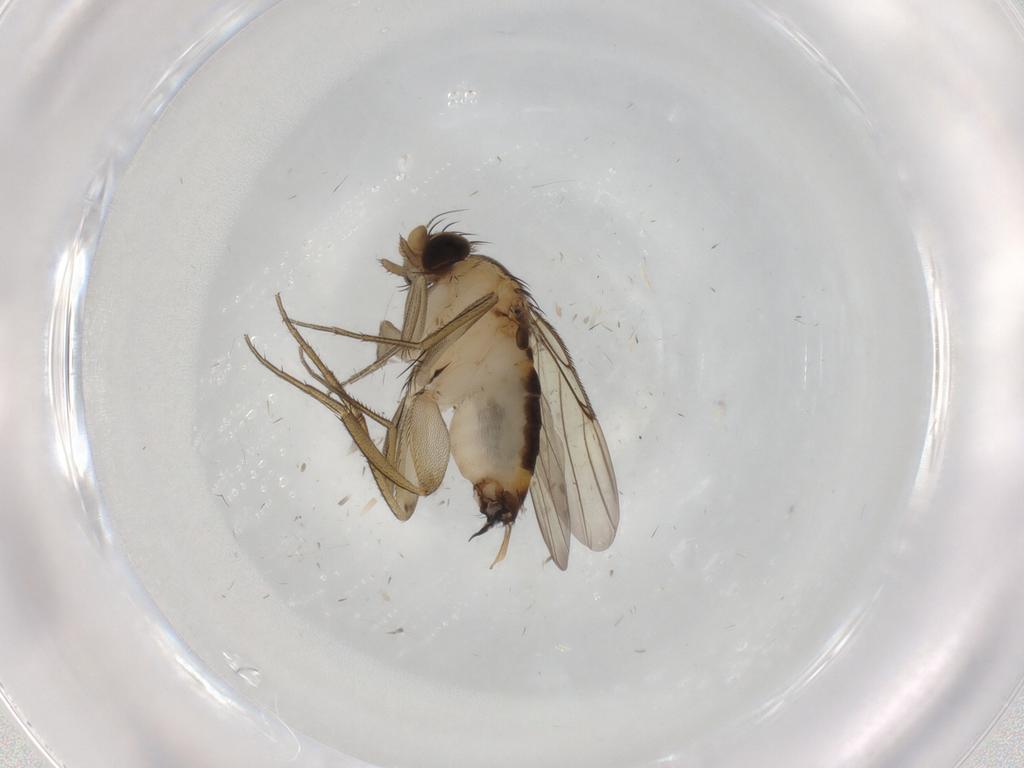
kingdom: Animalia
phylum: Arthropoda
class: Insecta
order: Diptera
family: Phoridae
